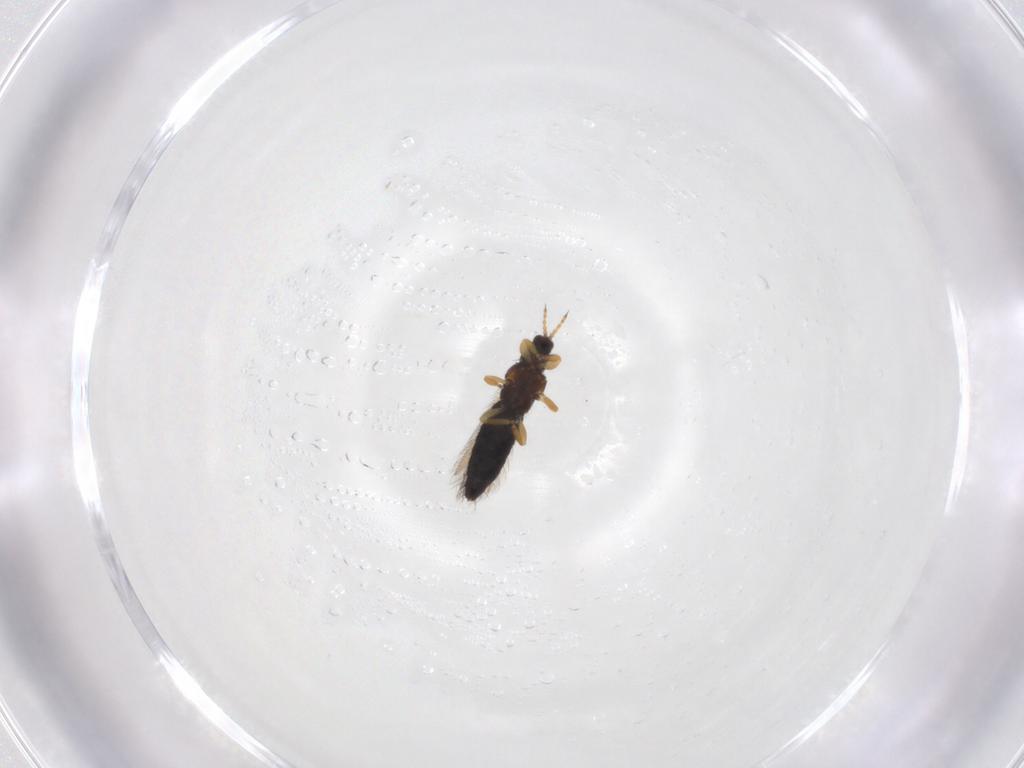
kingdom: Animalia
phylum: Arthropoda
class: Insecta
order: Thysanoptera
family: Thripidae
